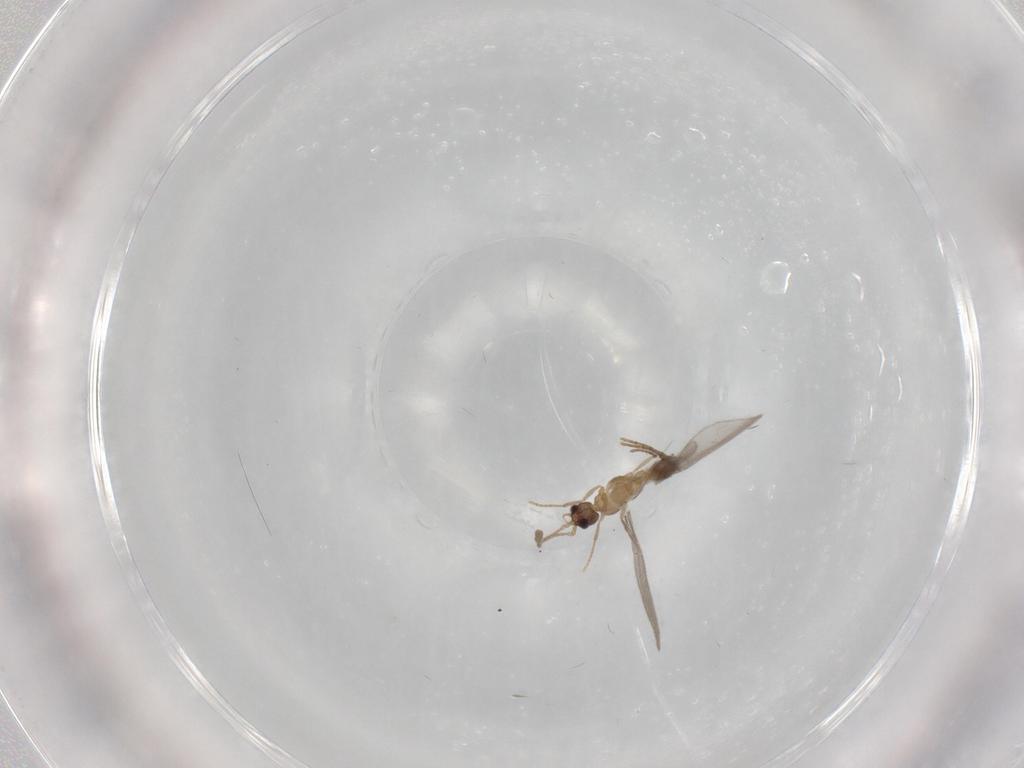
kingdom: Animalia
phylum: Arthropoda
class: Insecta
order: Hymenoptera
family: Formicidae
